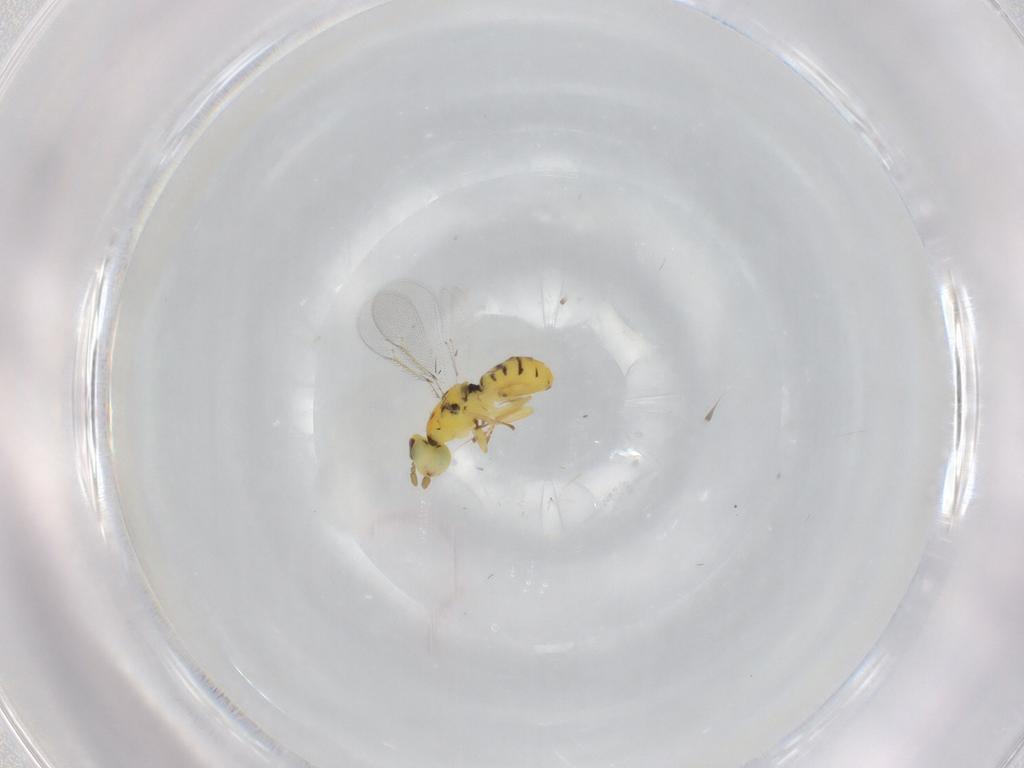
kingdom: Animalia
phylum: Arthropoda
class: Insecta
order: Hymenoptera
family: Eulophidae
